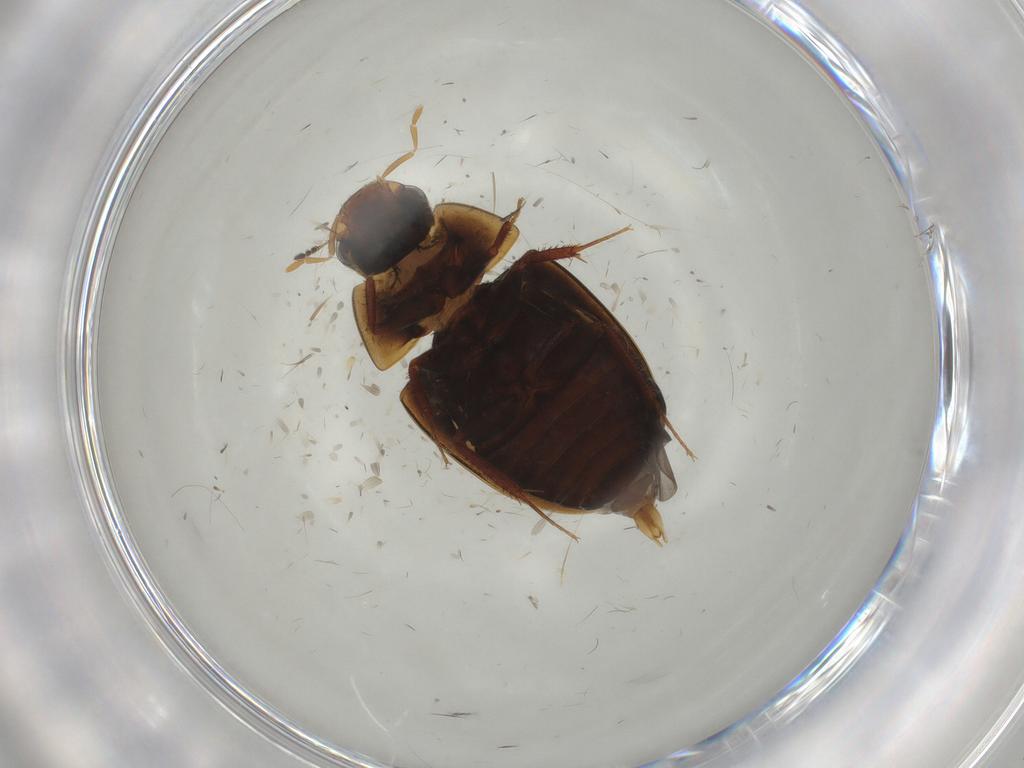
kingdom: Animalia
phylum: Arthropoda
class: Insecta
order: Coleoptera
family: Hydrophilidae
